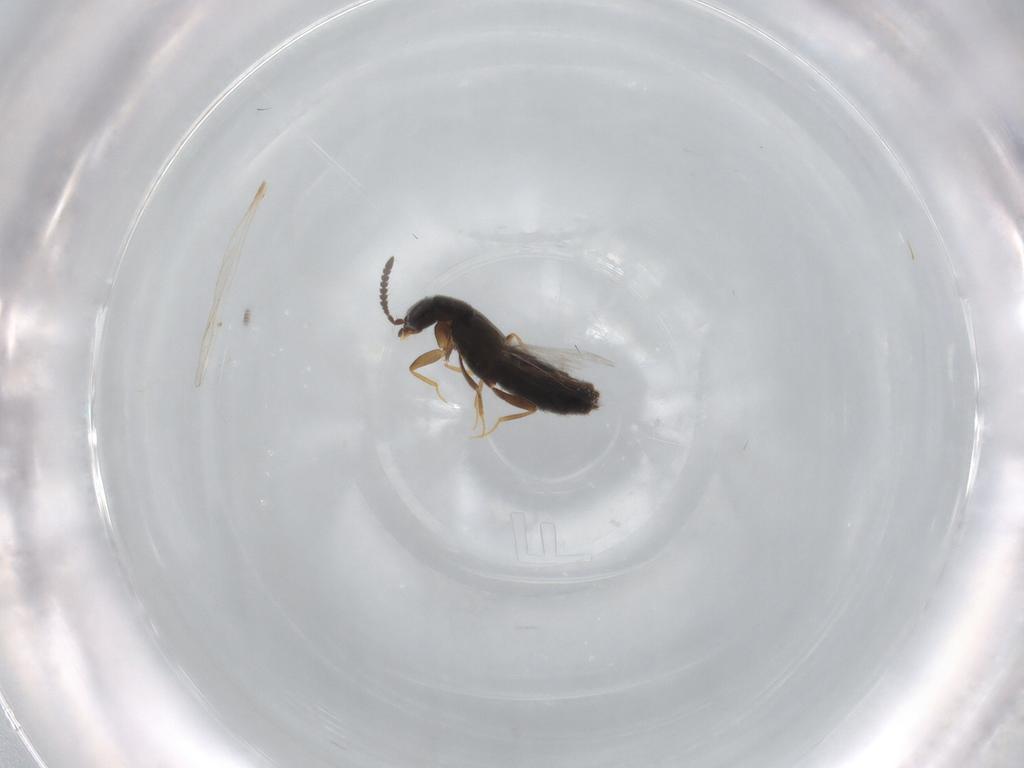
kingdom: Animalia
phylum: Arthropoda
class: Insecta
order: Coleoptera
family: Staphylinidae
